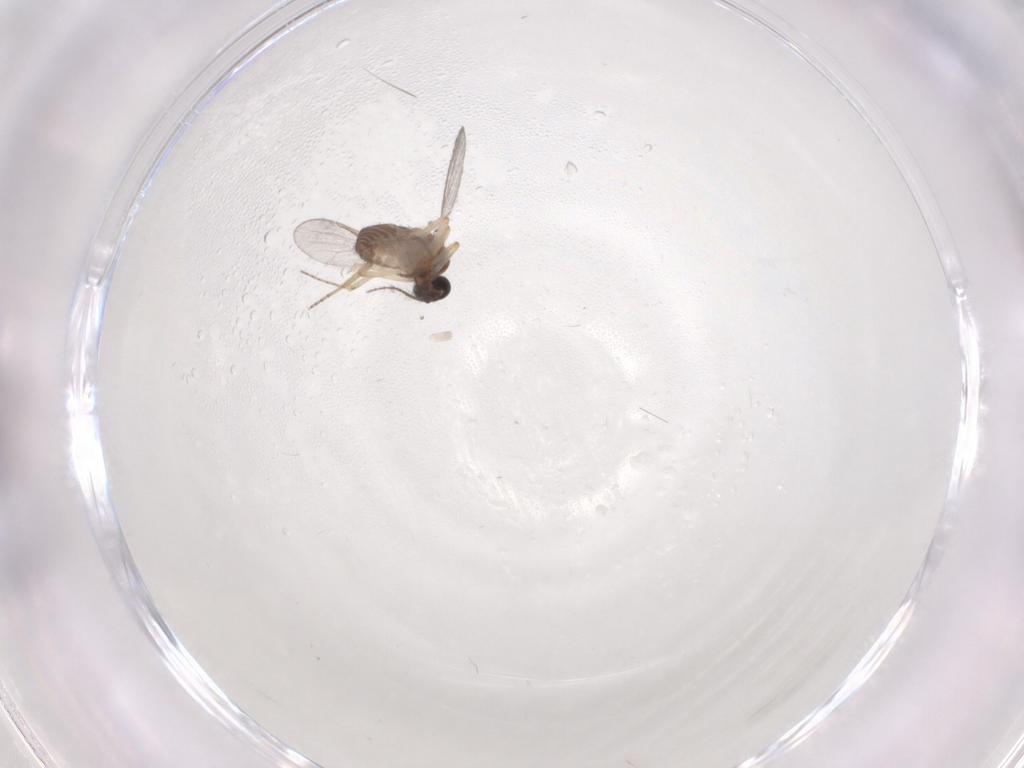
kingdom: Animalia
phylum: Arthropoda
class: Insecta
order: Diptera
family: Ceratopogonidae
